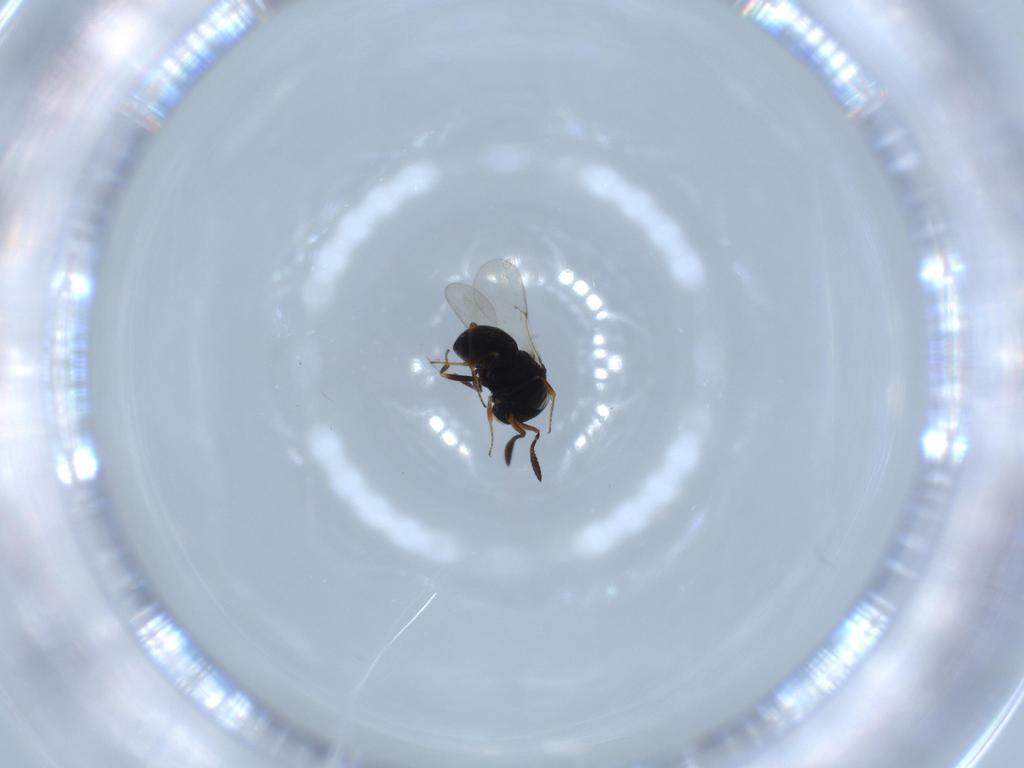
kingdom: Animalia
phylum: Arthropoda
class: Insecta
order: Hymenoptera
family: Scelionidae
